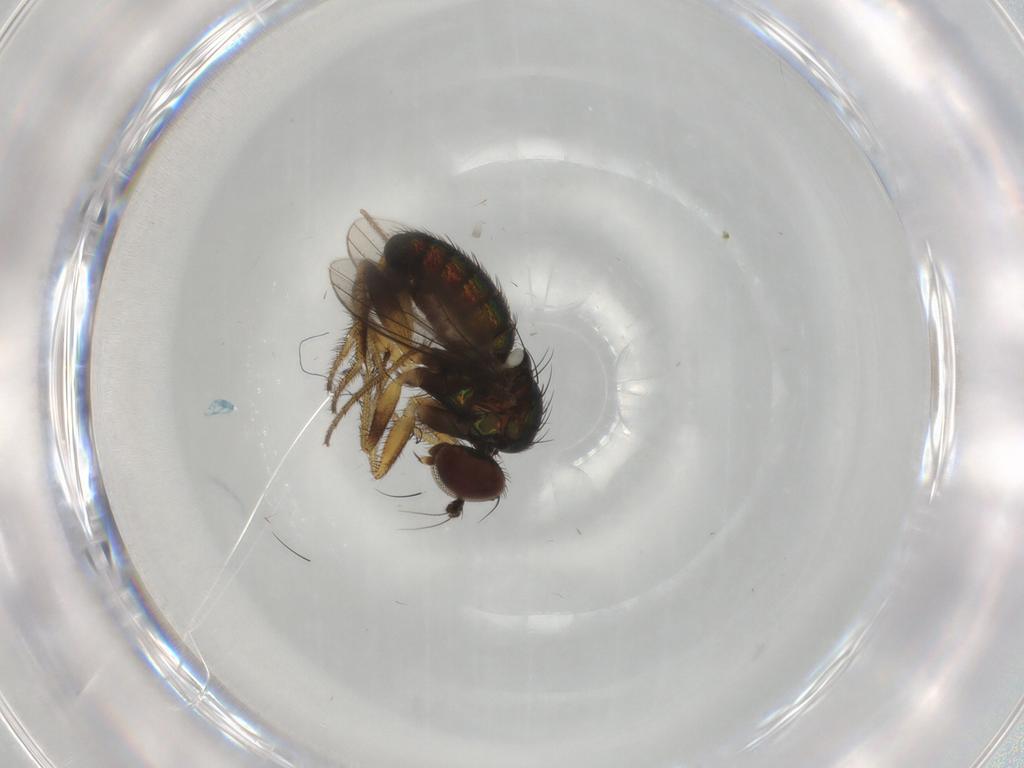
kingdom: Animalia
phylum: Arthropoda
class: Insecta
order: Diptera
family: Dolichopodidae
